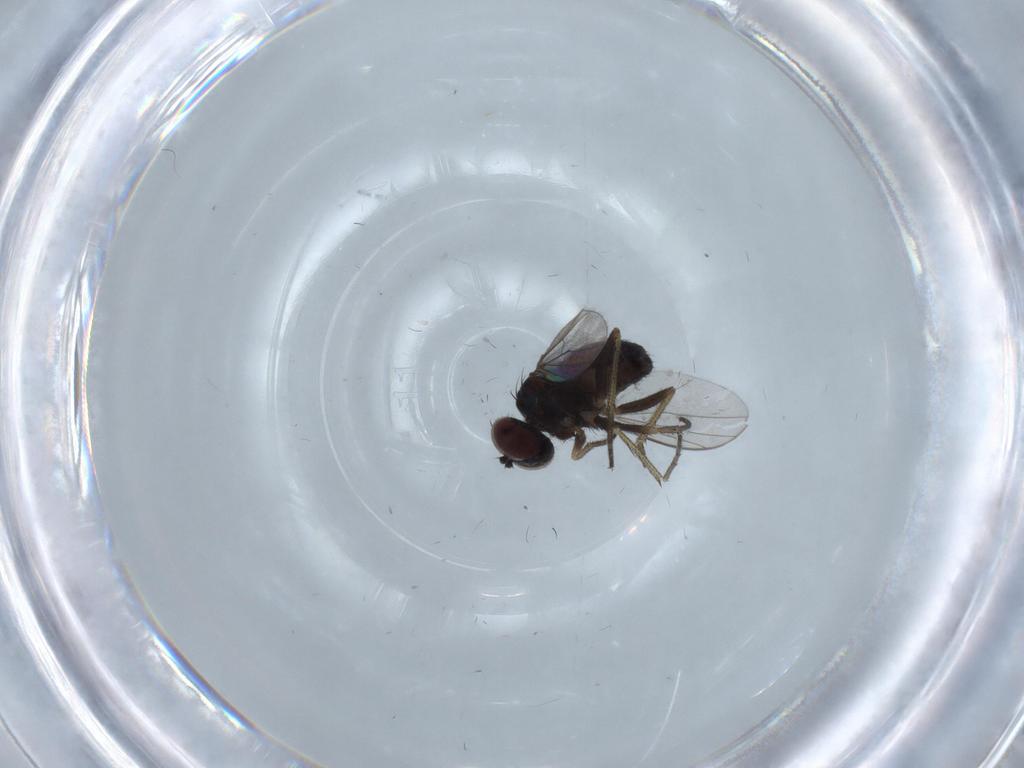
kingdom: Animalia
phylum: Arthropoda
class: Insecta
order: Diptera
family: Dolichopodidae
